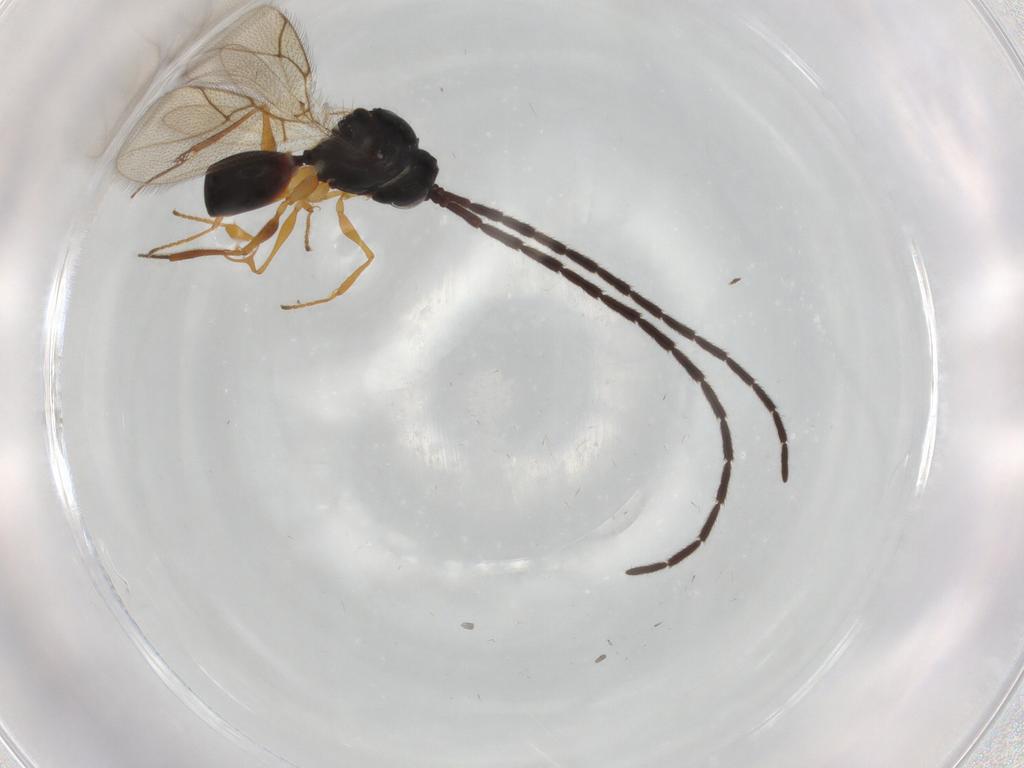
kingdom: Animalia
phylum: Arthropoda
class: Insecta
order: Hymenoptera
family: Figitidae
